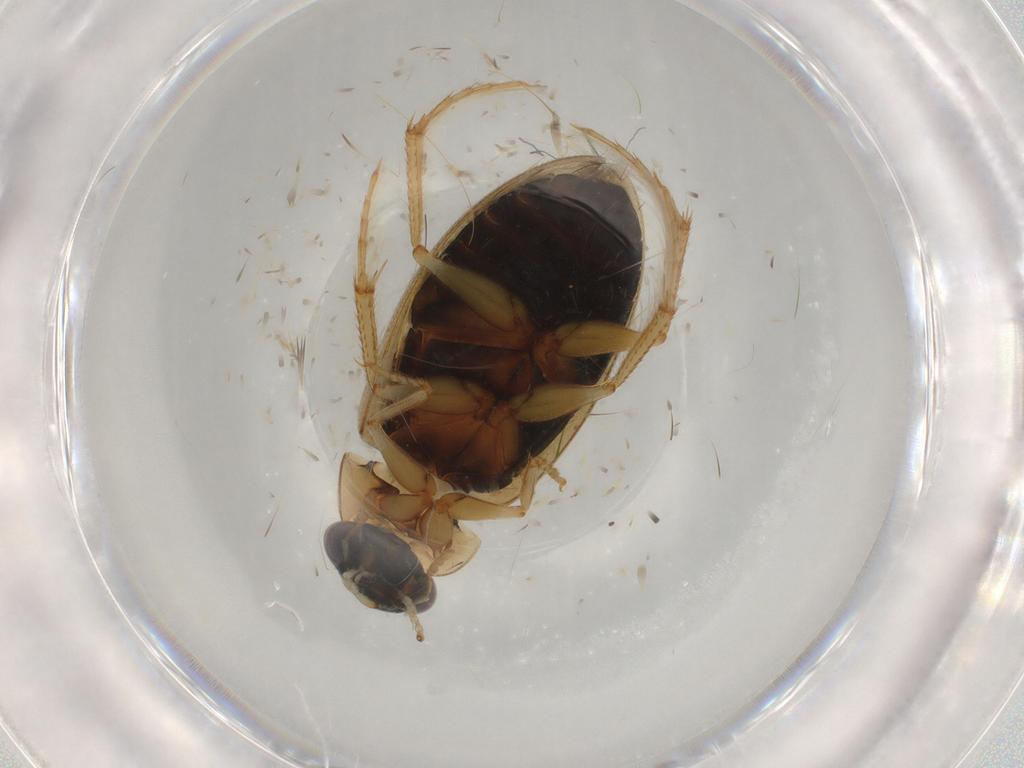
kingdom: Animalia
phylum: Arthropoda
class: Insecta
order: Coleoptera
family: Hydrophilidae
